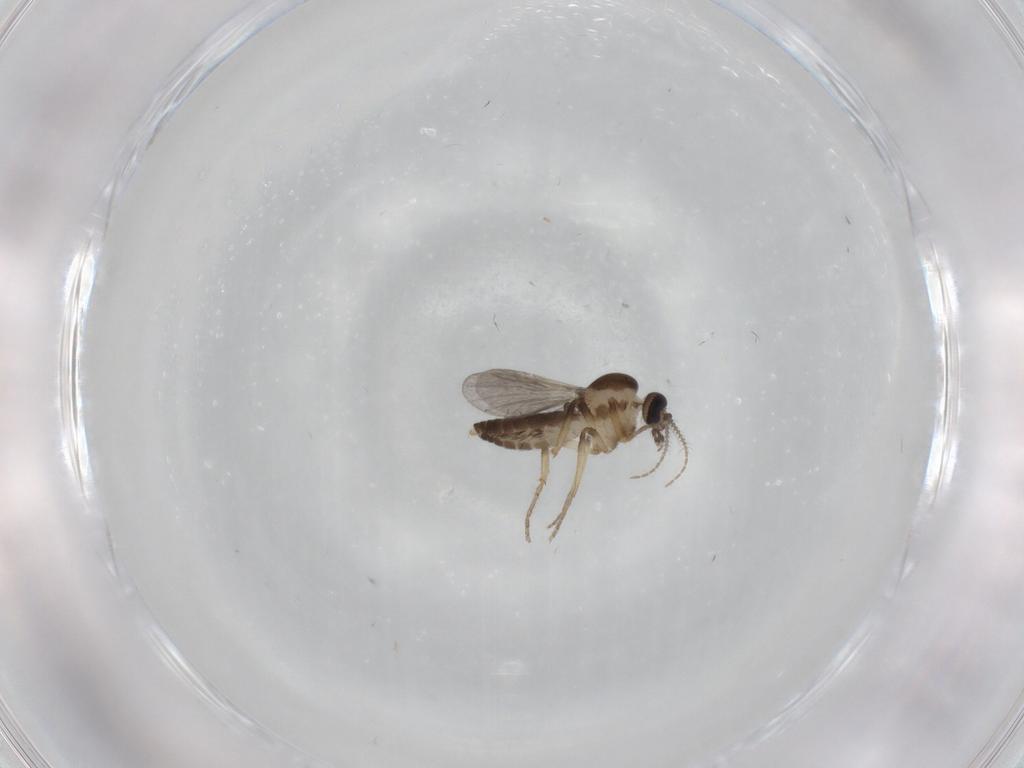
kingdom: Animalia
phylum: Arthropoda
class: Insecta
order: Diptera
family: Ceratopogonidae
